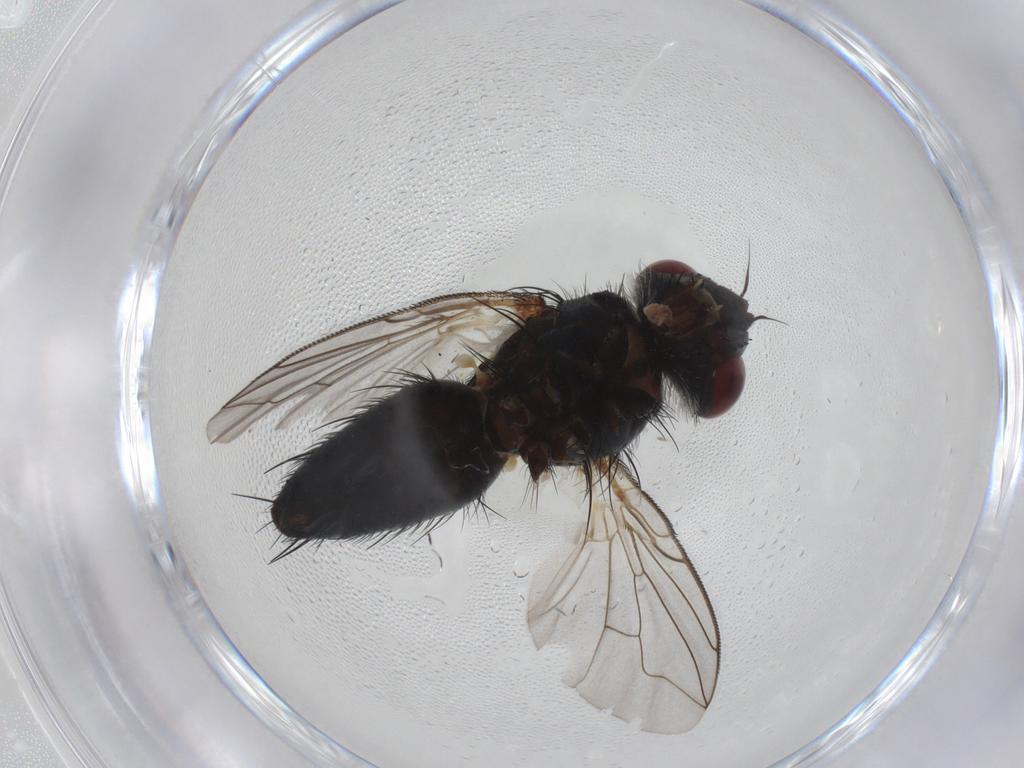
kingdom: Animalia
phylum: Arthropoda
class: Insecta
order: Diptera
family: Tachinidae
